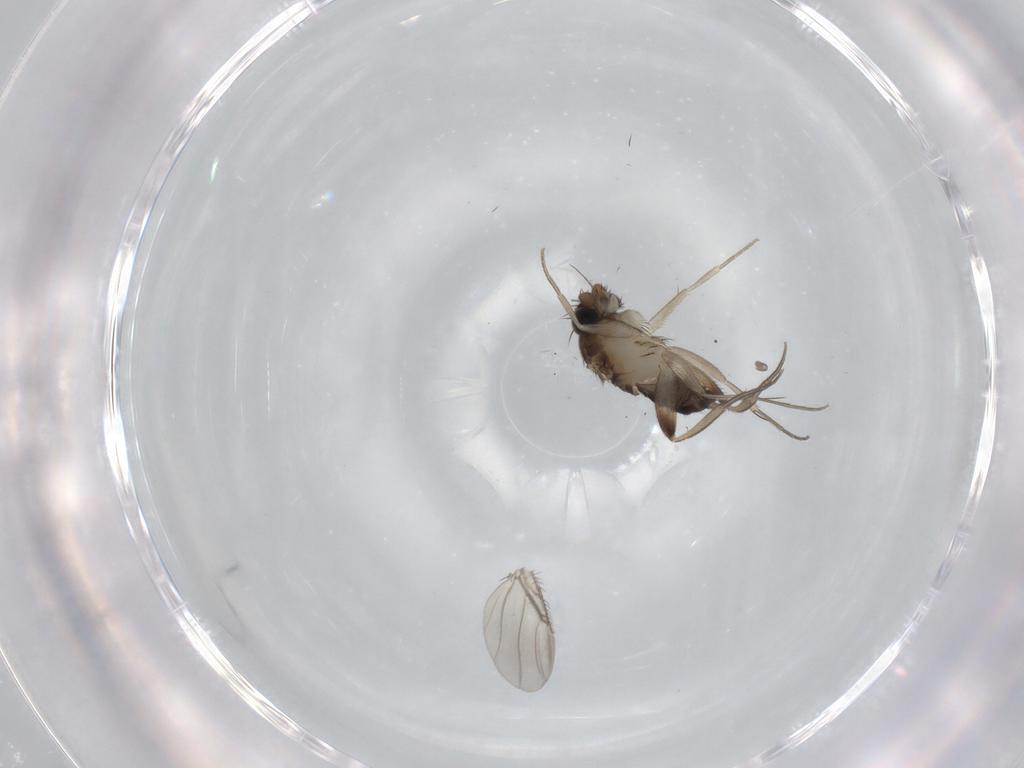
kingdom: Animalia
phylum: Arthropoda
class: Insecta
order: Diptera
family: Phoridae
